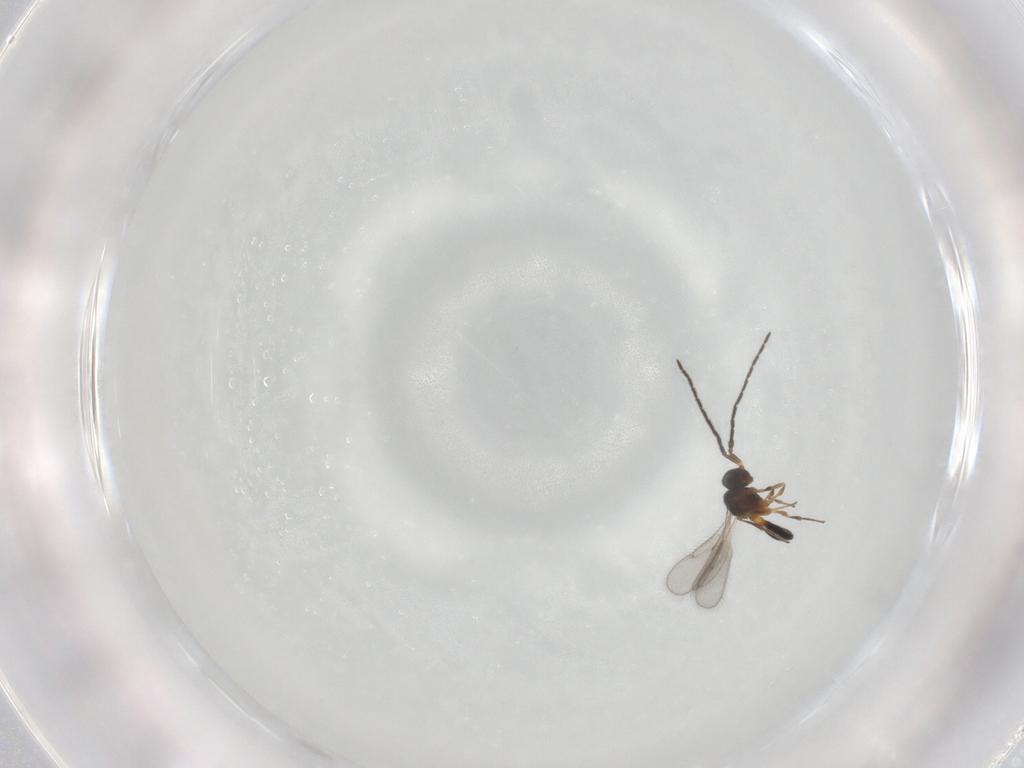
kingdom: Animalia
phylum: Arthropoda
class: Insecta
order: Hymenoptera
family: Scelionidae
